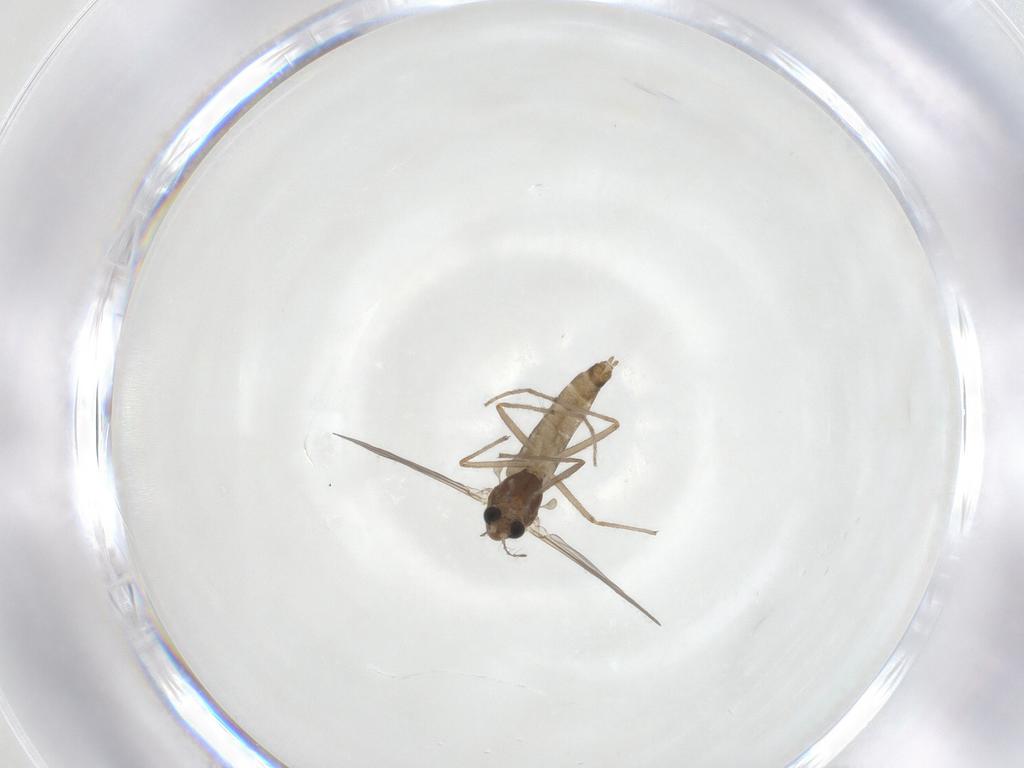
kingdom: Animalia
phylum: Arthropoda
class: Insecta
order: Diptera
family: Chironomidae
